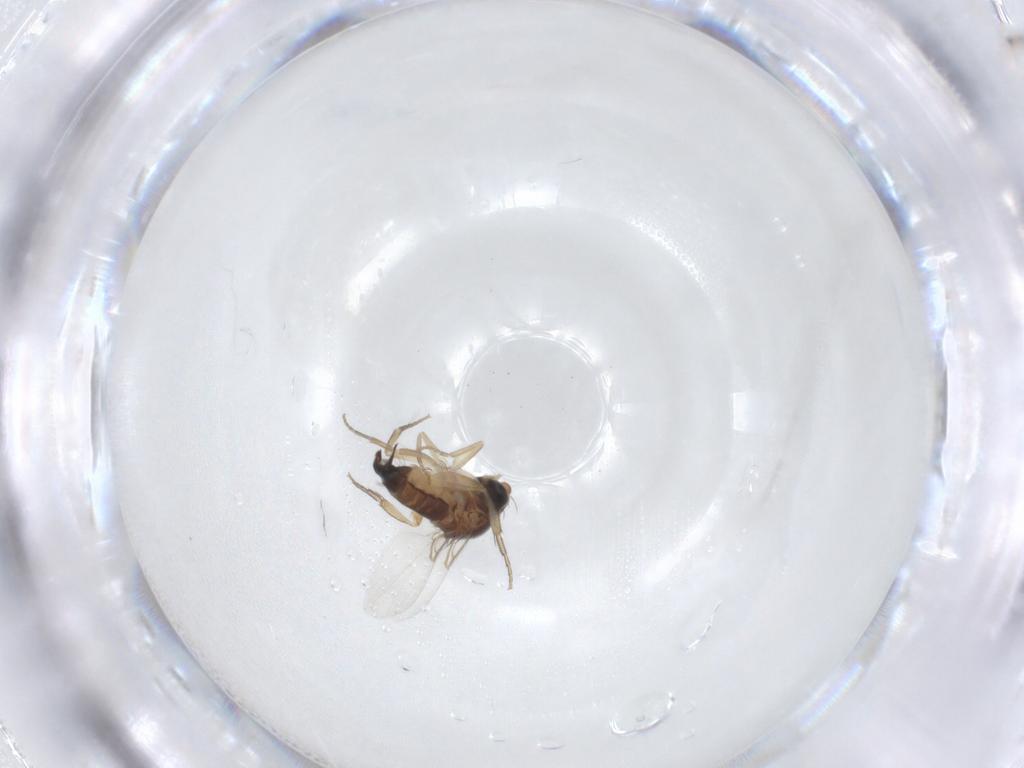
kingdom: Animalia
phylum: Arthropoda
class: Insecta
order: Diptera
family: Phoridae
